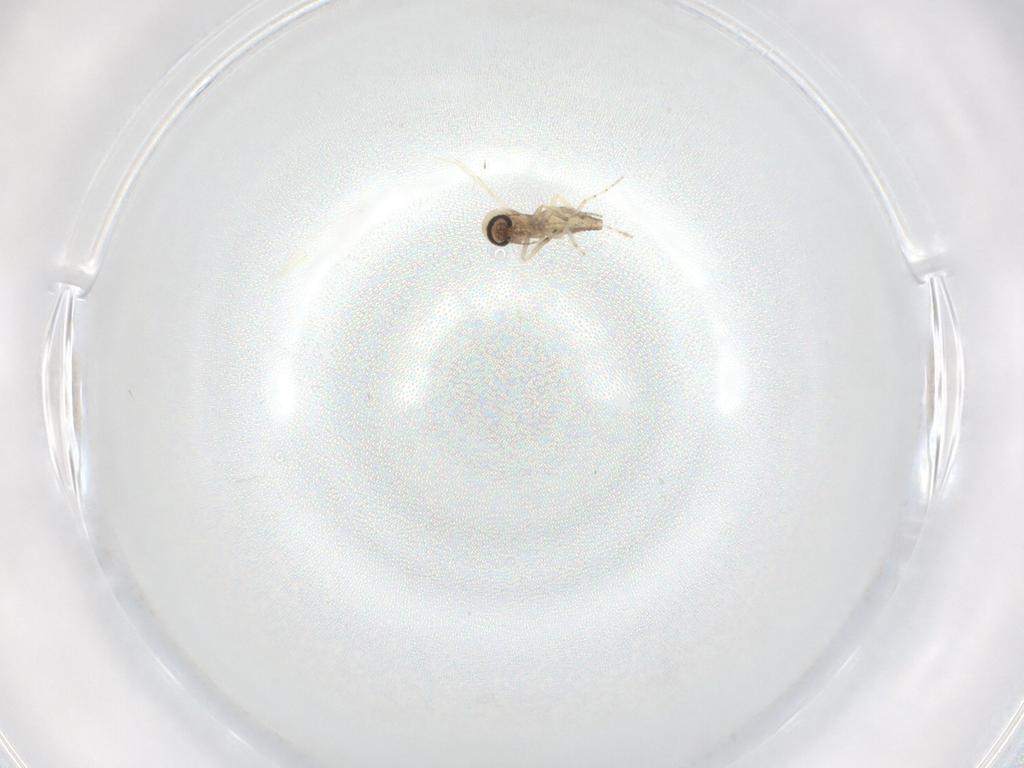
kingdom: Animalia
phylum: Arthropoda
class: Insecta
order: Diptera
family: Ceratopogonidae
